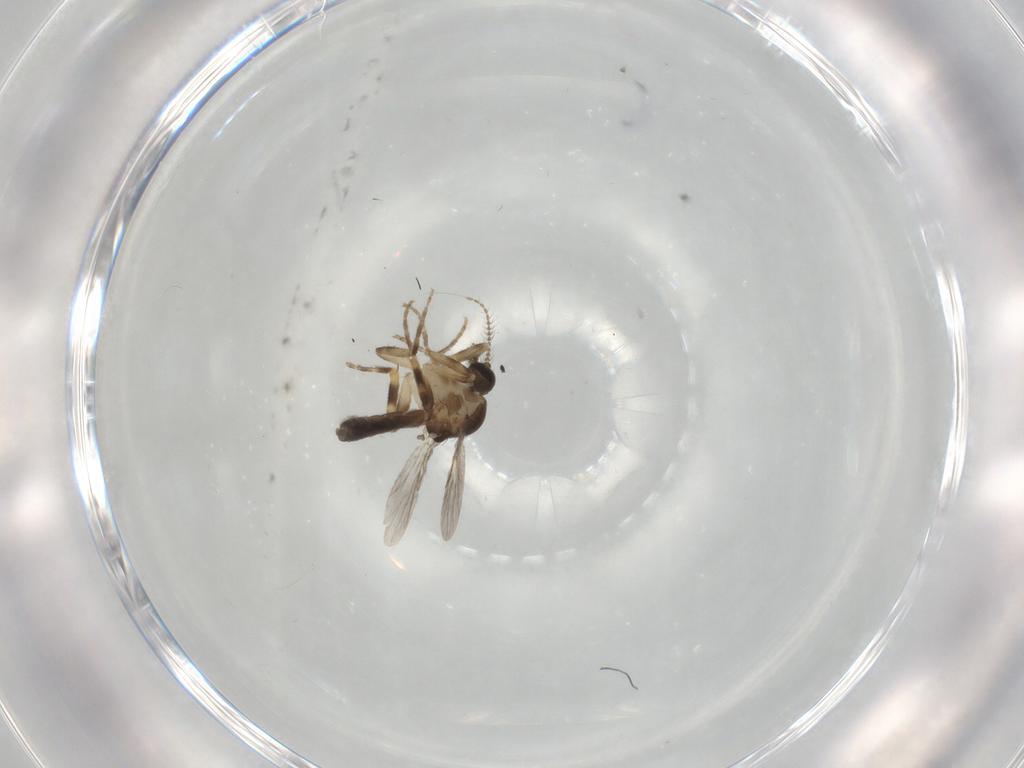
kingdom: Animalia
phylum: Arthropoda
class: Insecta
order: Diptera
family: Ceratopogonidae
